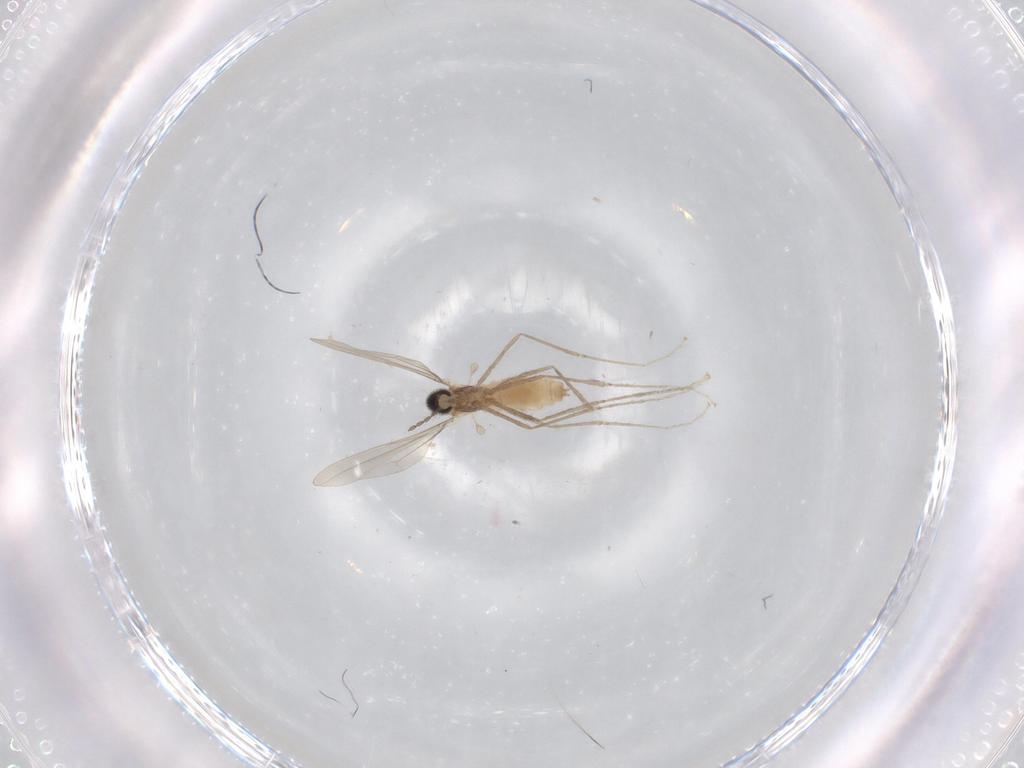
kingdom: Animalia
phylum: Arthropoda
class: Insecta
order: Diptera
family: Cecidomyiidae
